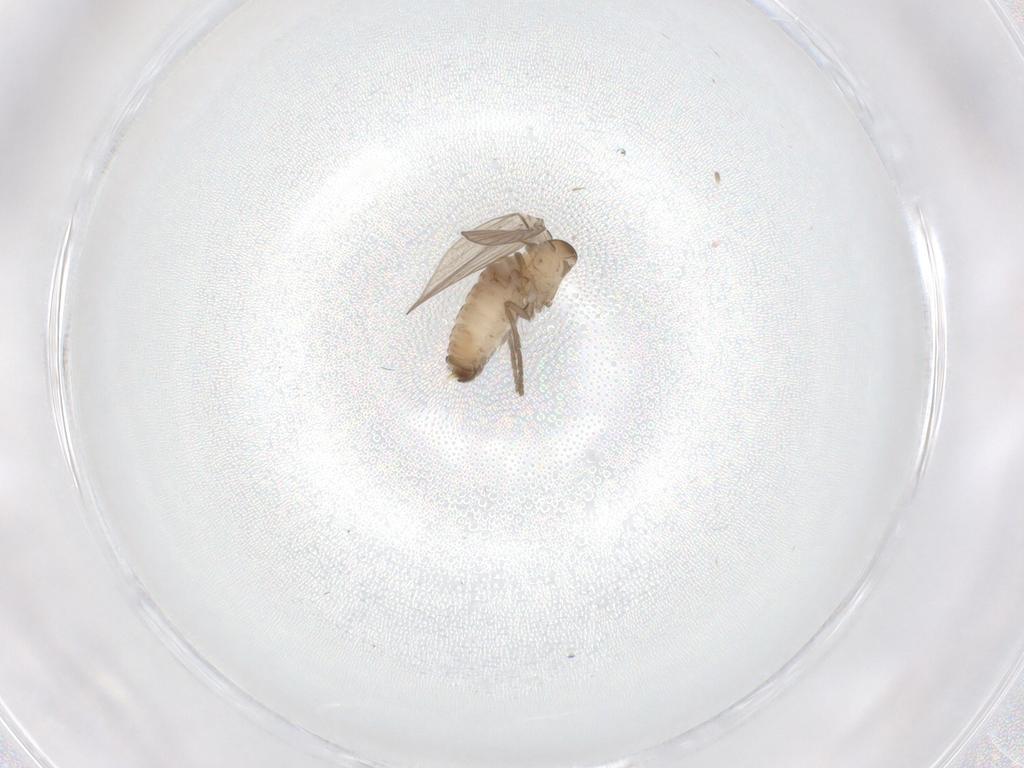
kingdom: Animalia
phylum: Arthropoda
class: Insecta
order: Diptera
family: Psychodidae
